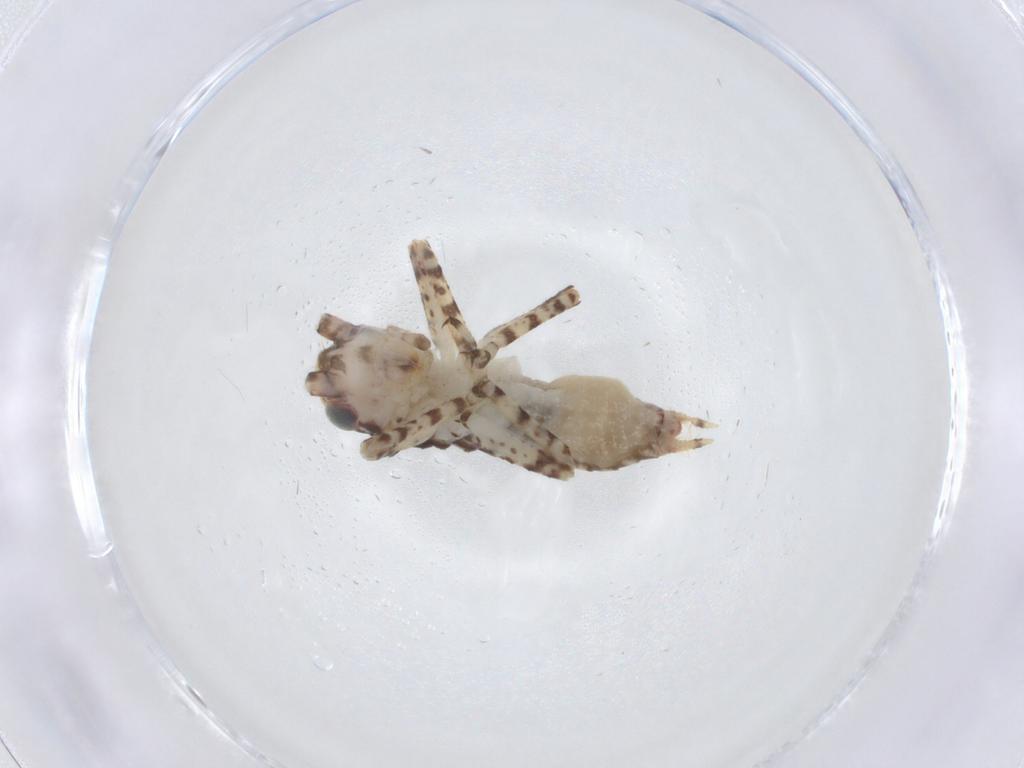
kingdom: Animalia
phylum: Arthropoda
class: Insecta
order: Orthoptera
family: Gryllidae
